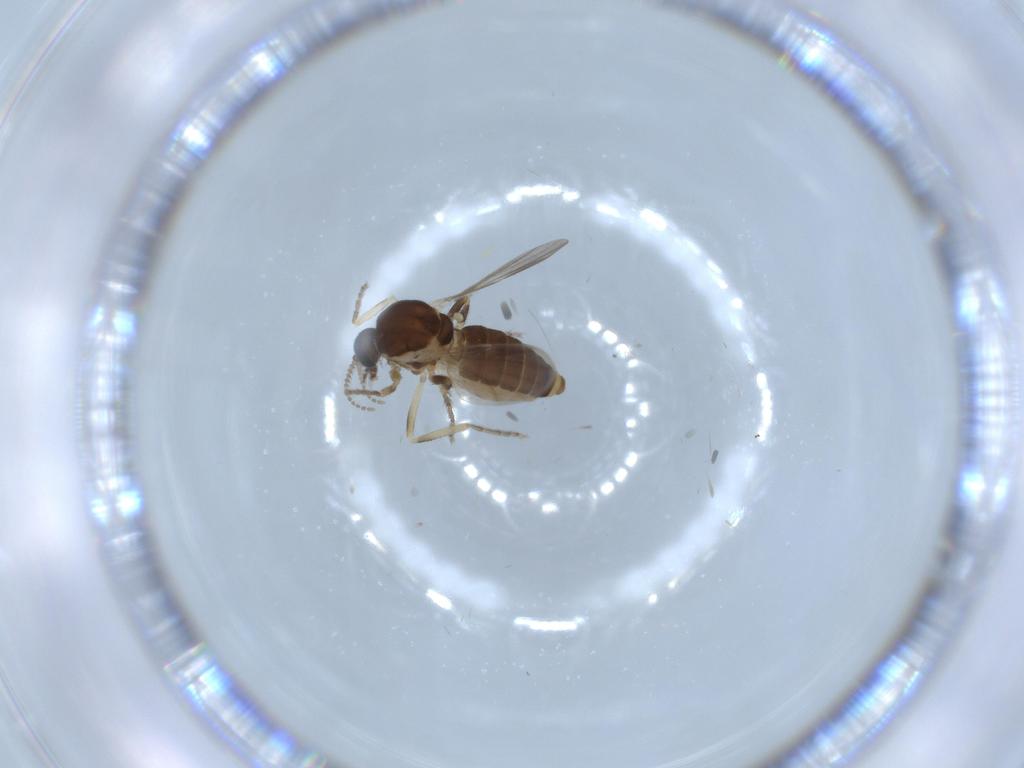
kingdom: Animalia
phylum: Arthropoda
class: Insecta
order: Diptera
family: Ceratopogonidae
